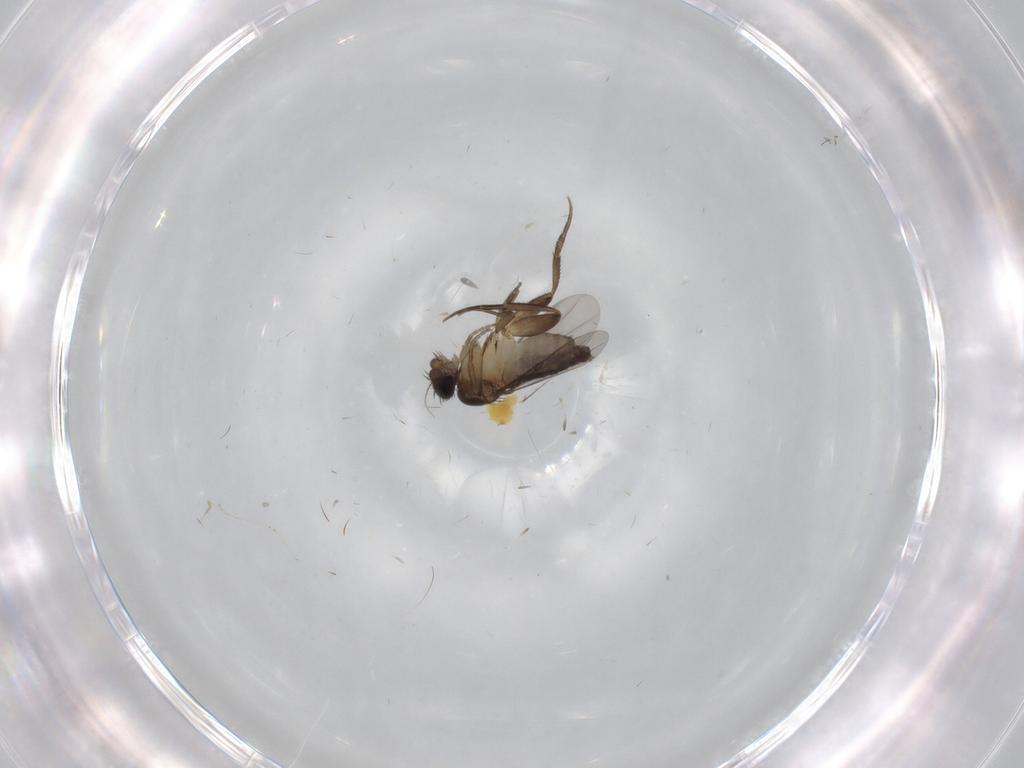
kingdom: Animalia
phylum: Arthropoda
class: Insecta
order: Diptera
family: Phoridae
